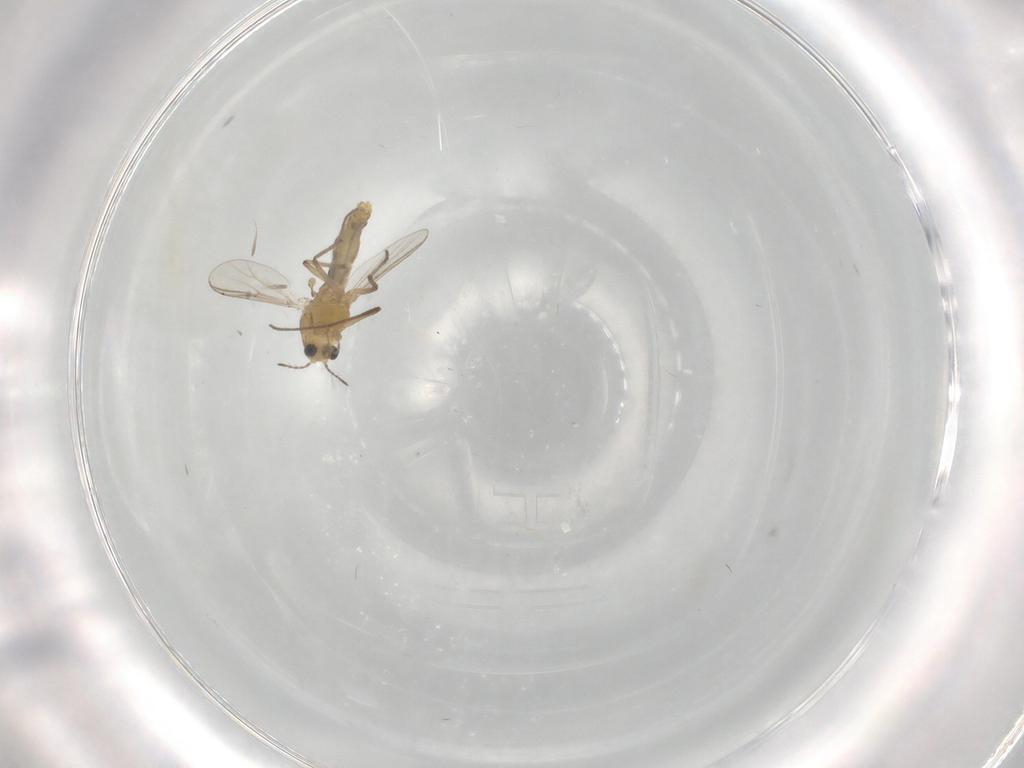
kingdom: Animalia
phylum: Arthropoda
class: Insecta
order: Diptera
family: Chironomidae
